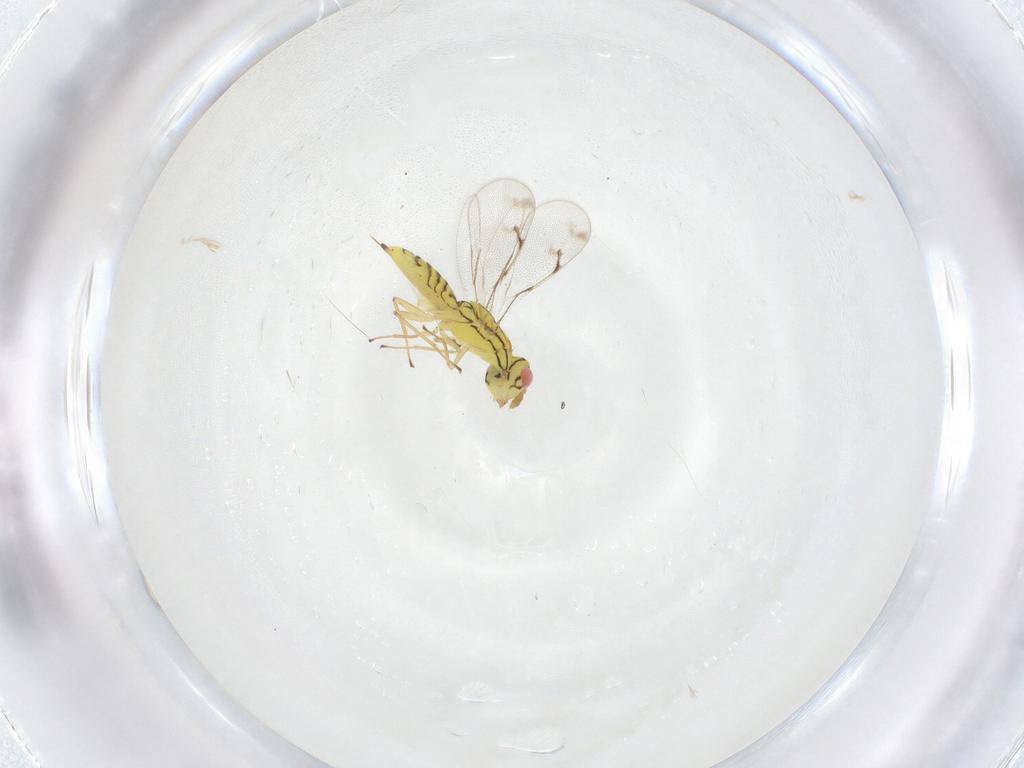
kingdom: Animalia
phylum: Arthropoda
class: Insecta
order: Hymenoptera
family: Eulophidae
